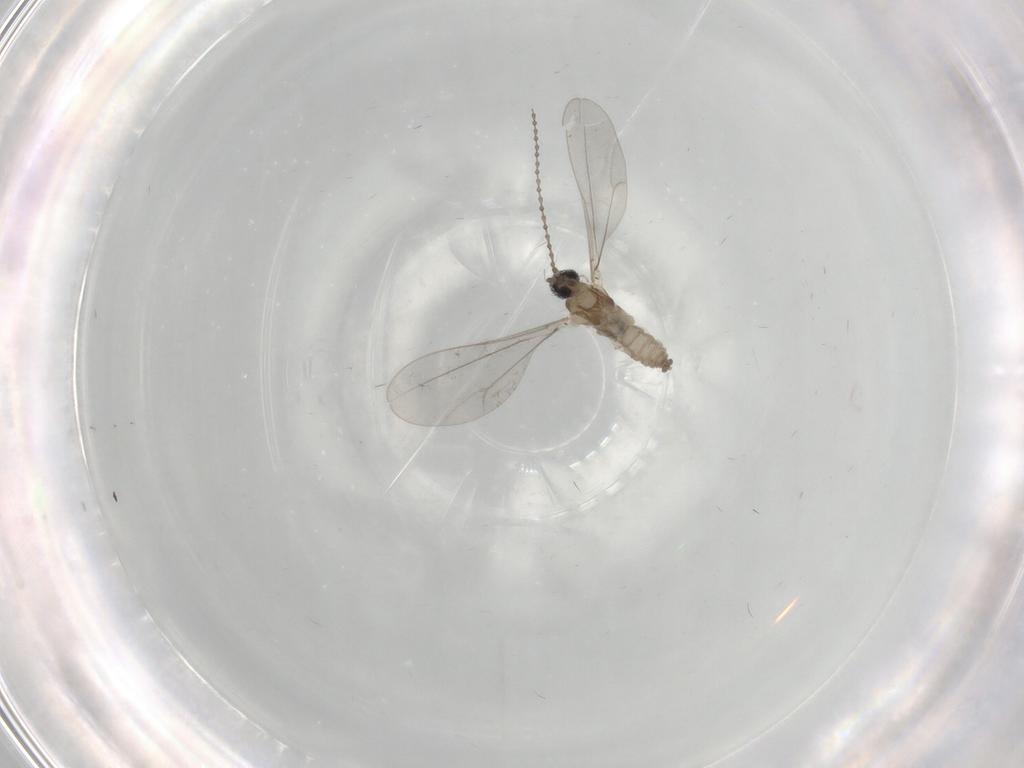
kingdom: Animalia
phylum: Arthropoda
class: Insecta
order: Diptera
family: Cecidomyiidae
